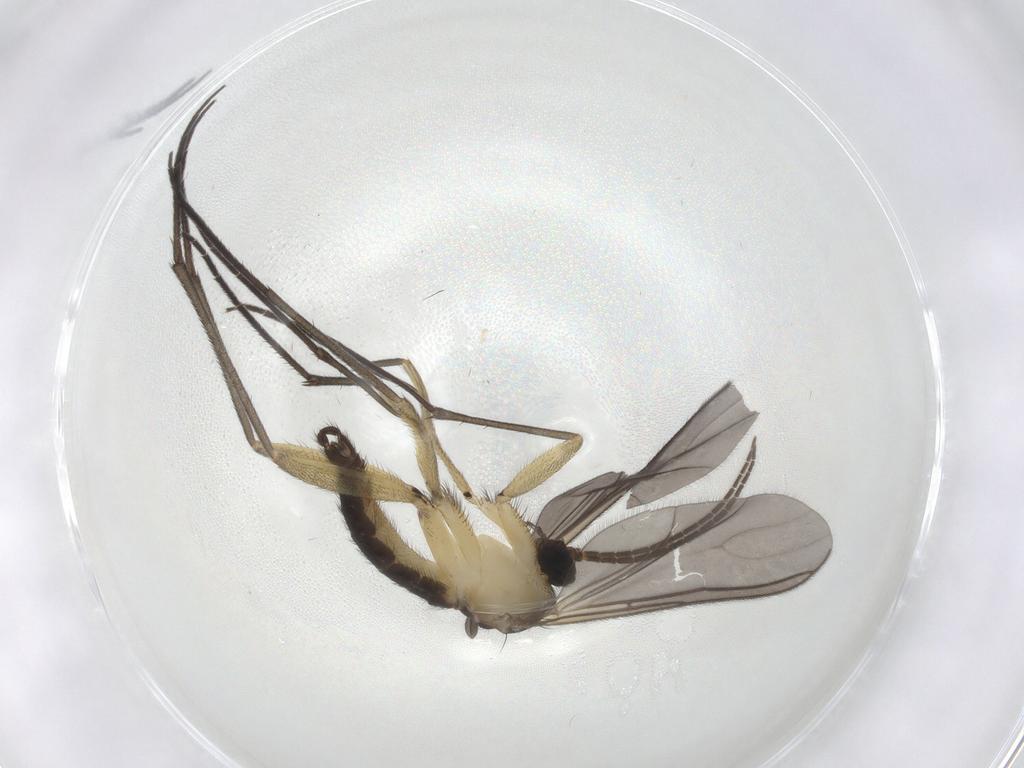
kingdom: Animalia
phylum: Arthropoda
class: Insecta
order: Diptera
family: Sciaridae
